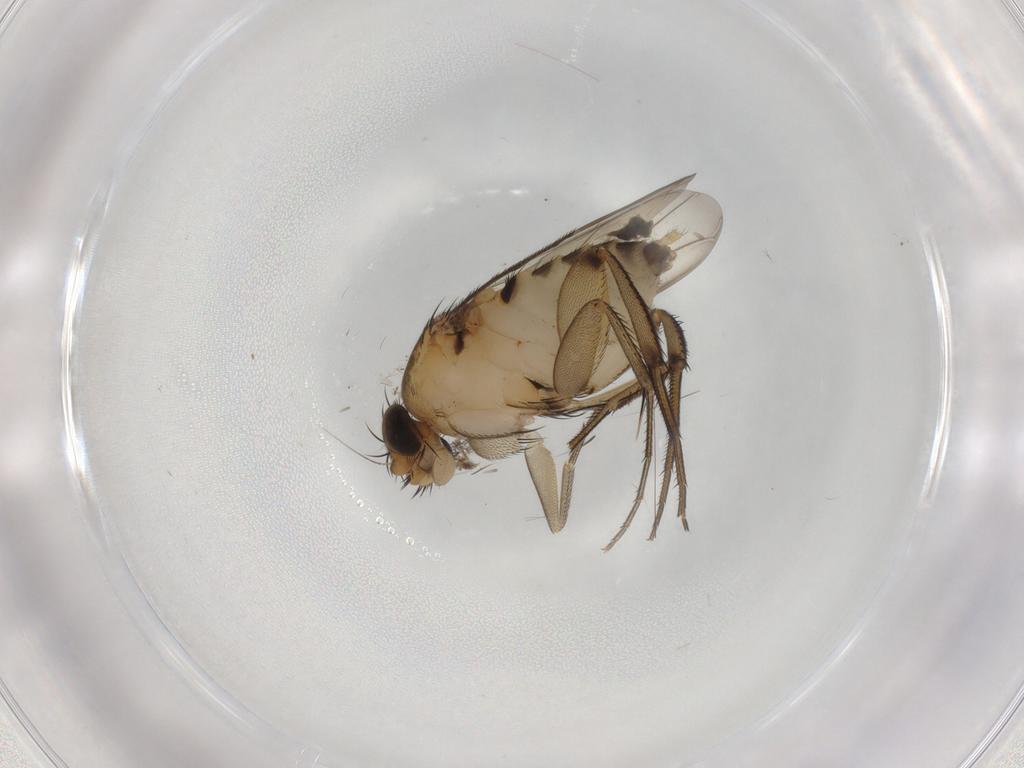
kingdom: Animalia
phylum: Arthropoda
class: Insecta
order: Diptera
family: Sciaridae
